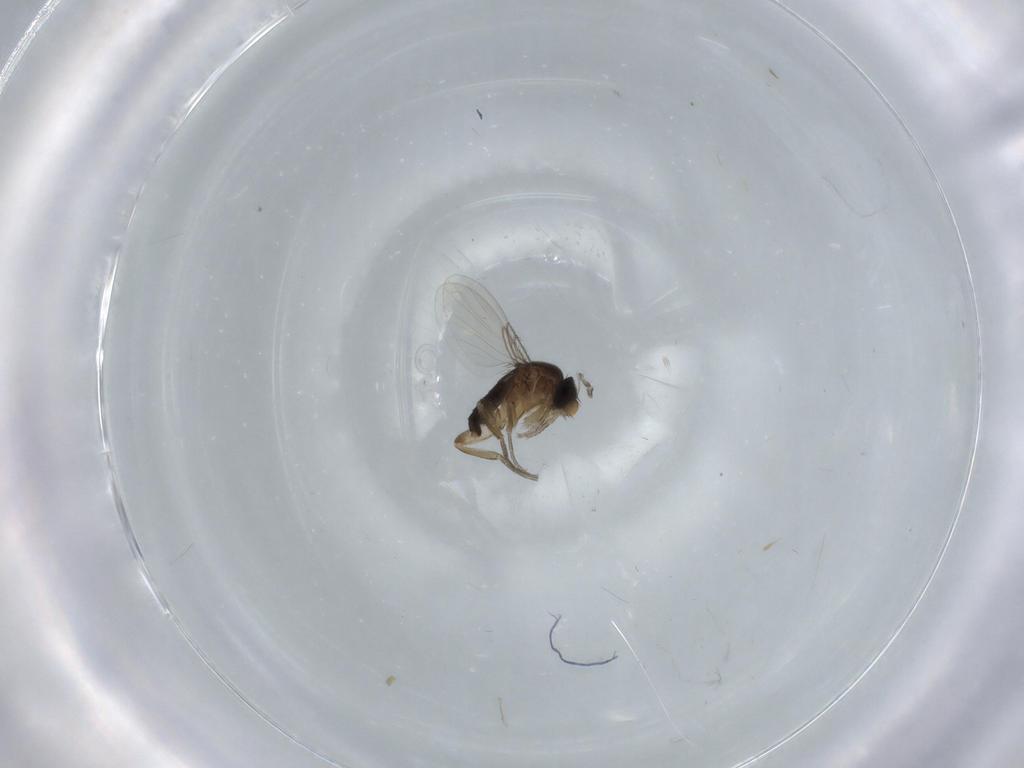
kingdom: Animalia
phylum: Arthropoda
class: Insecta
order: Diptera
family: Phoridae
